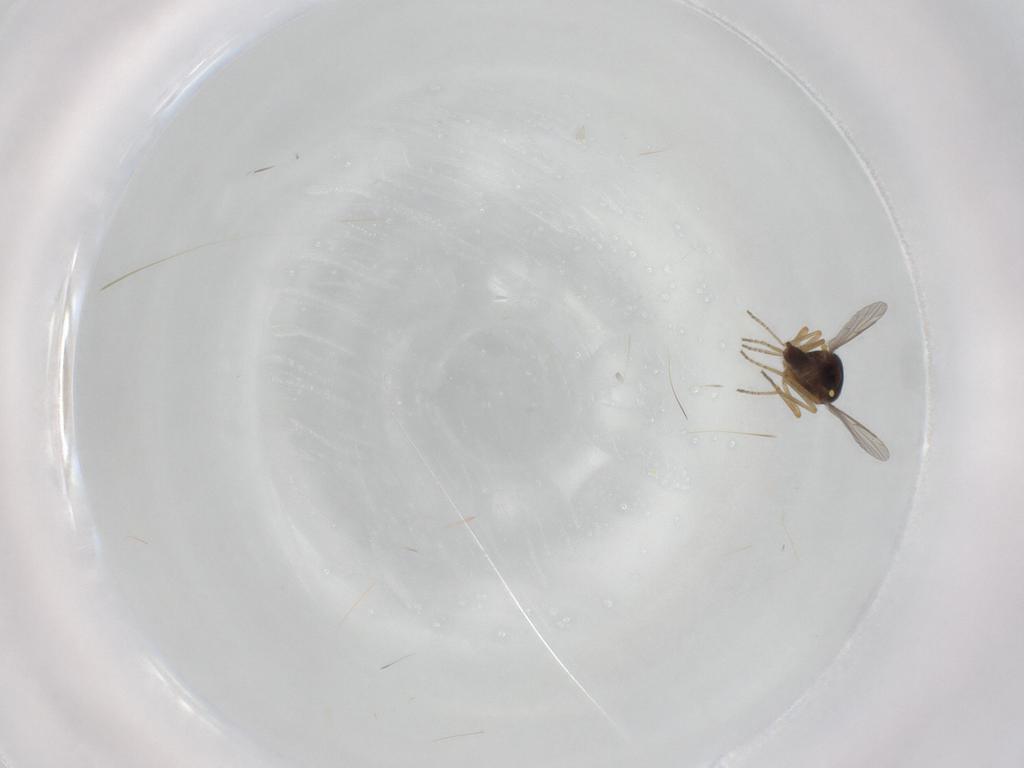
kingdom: Animalia
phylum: Arthropoda
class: Insecta
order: Diptera
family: Ceratopogonidae
